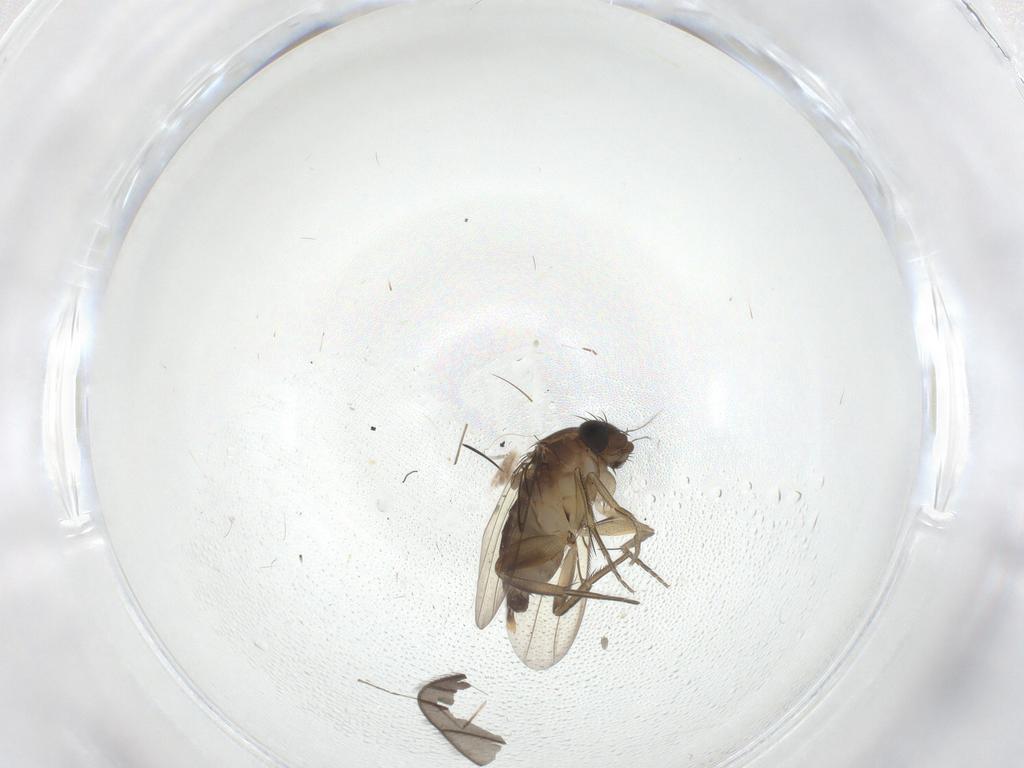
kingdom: Animalia
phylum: Arthropoda
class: Insecta
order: Diptera
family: Phoridae
